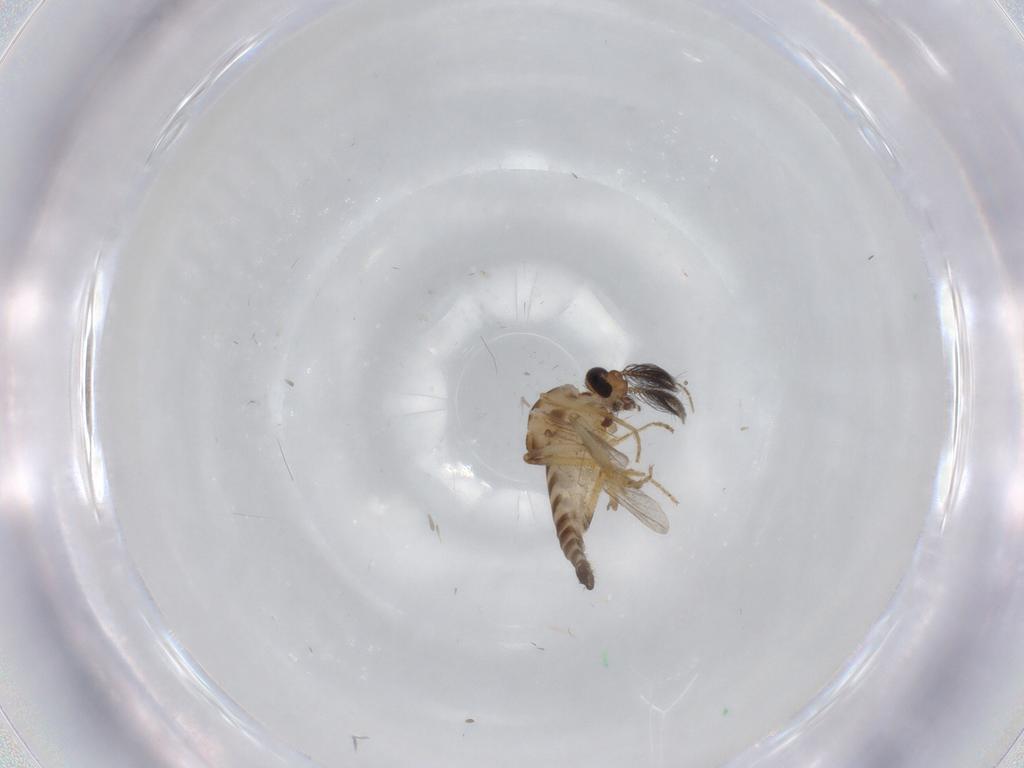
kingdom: Animalia
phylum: Arthropoda
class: Insecta
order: Diptera
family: Ceratopogonidae
